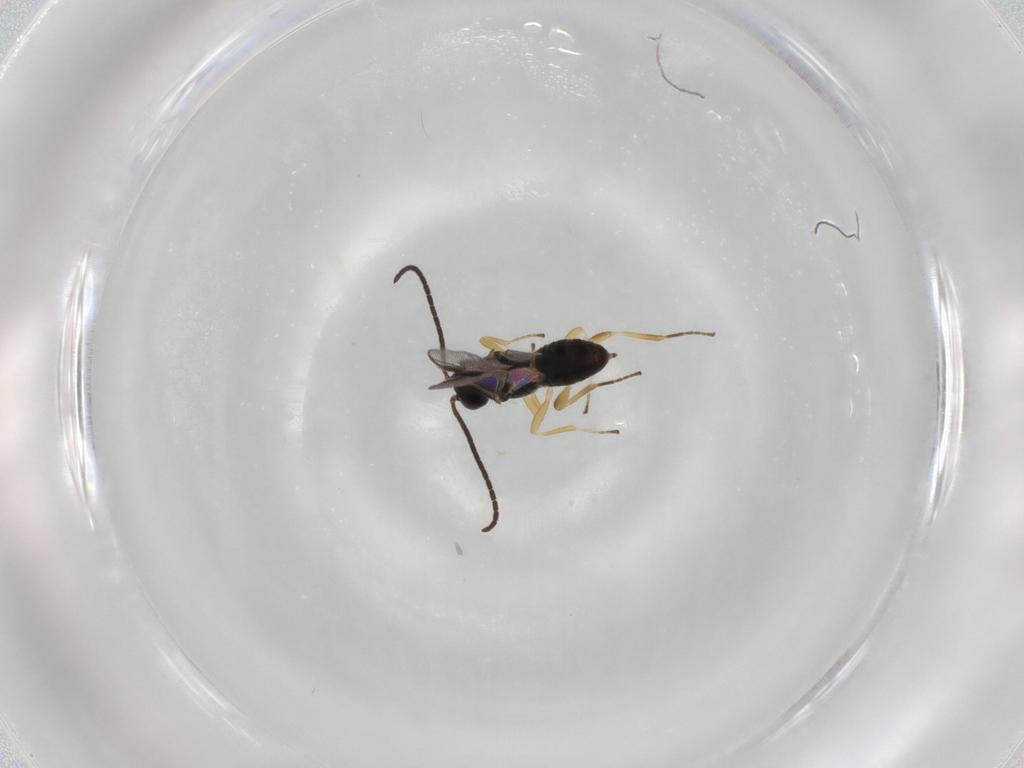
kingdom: Animalia
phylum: Arthropoda
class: Insecta
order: Hymenoptera
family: Braconidae
